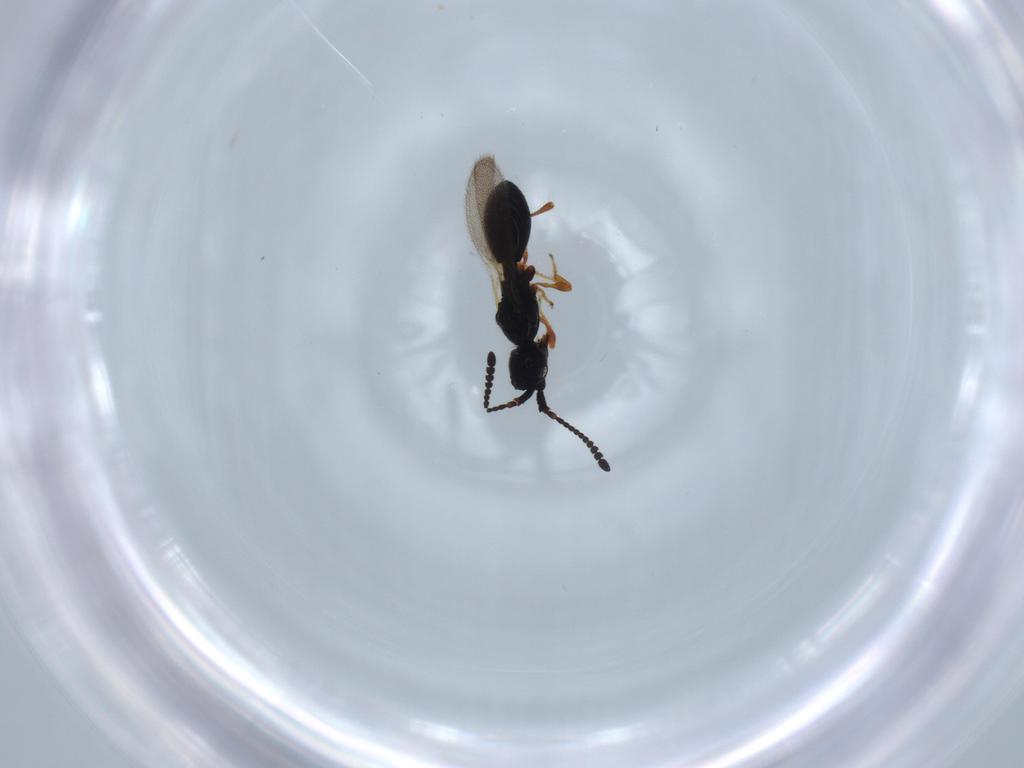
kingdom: Animalia
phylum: Arthropoda
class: Insecta
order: Hymenoptera
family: Diapriidae
